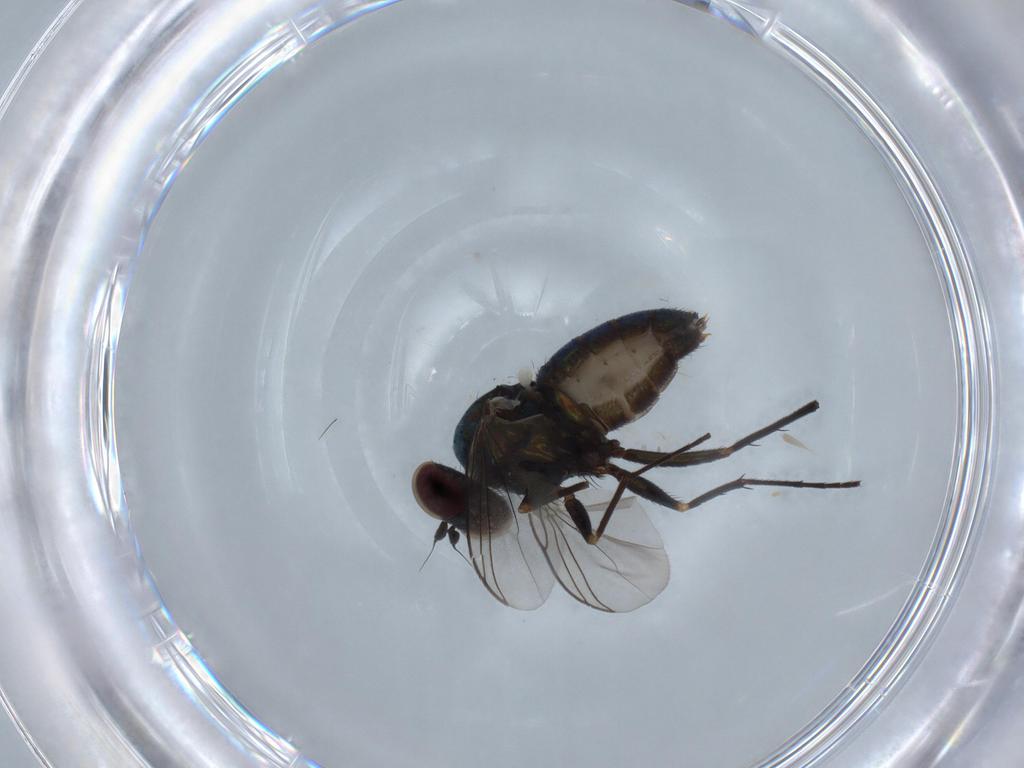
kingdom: Animalia
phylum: Arthropoda
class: Insecta
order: Diptera
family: Dolichopodidae
